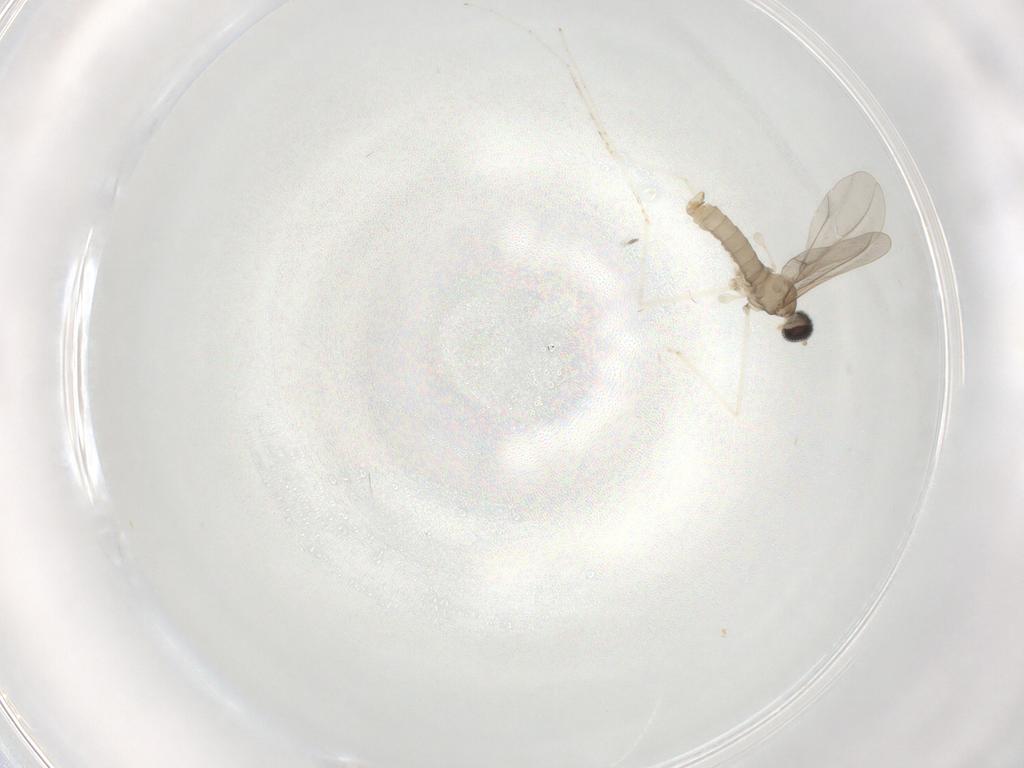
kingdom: Animalia
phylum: Arthropoda
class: Insecta
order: Diptera
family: Cecidomyiidae
